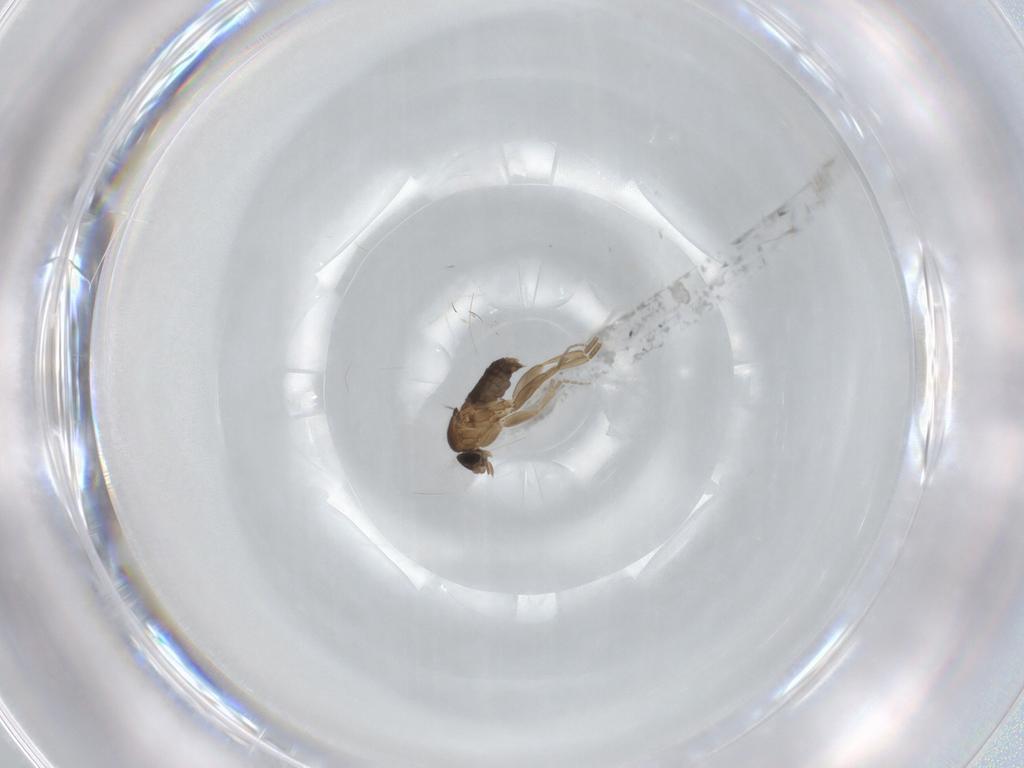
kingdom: Animalia
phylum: Arthropoda
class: Insecta
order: Diptera
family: Phoridae
